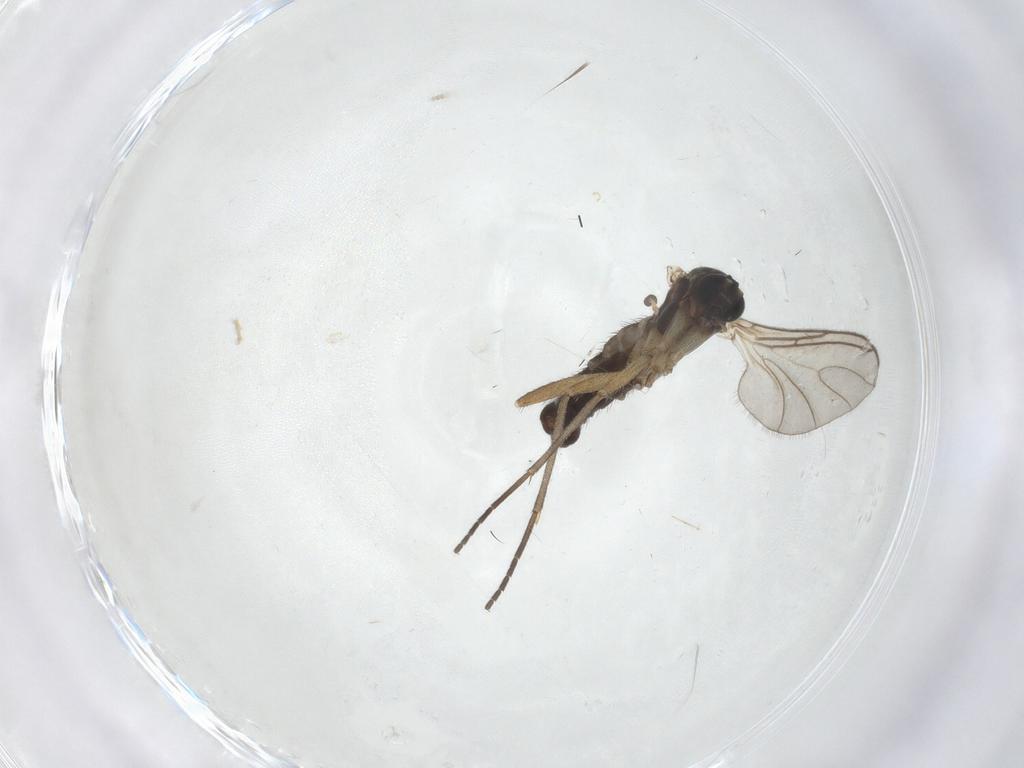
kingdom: Animalia
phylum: Arthropoda
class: Insecta
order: Diptera
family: Sciaridae
